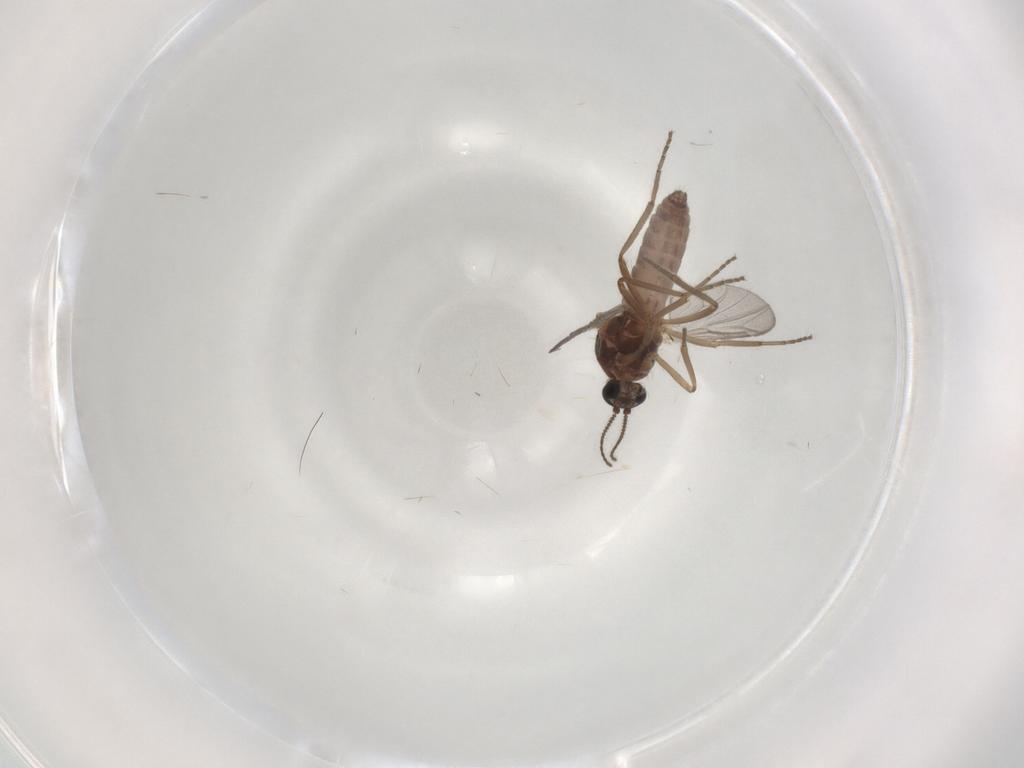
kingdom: Animalia
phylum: Arthropoda
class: Insecta
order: Diptera
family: Ceratopogonidae
